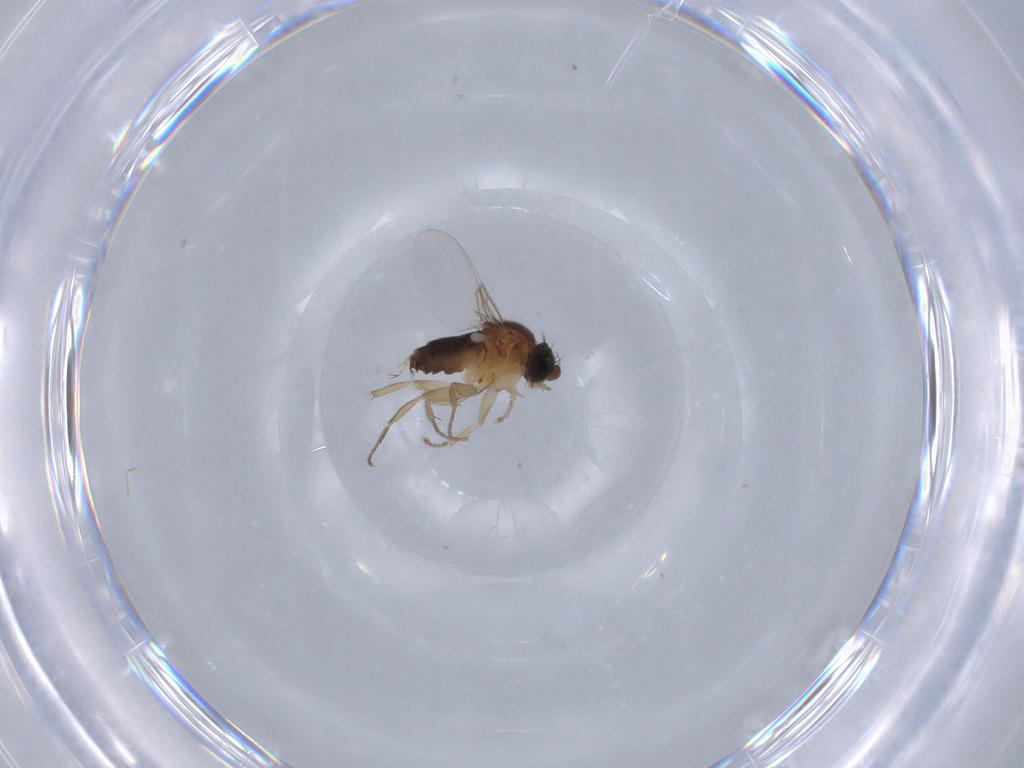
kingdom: Animalia
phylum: Arthropoda
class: Insecta
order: Diptera
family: Phoridae
